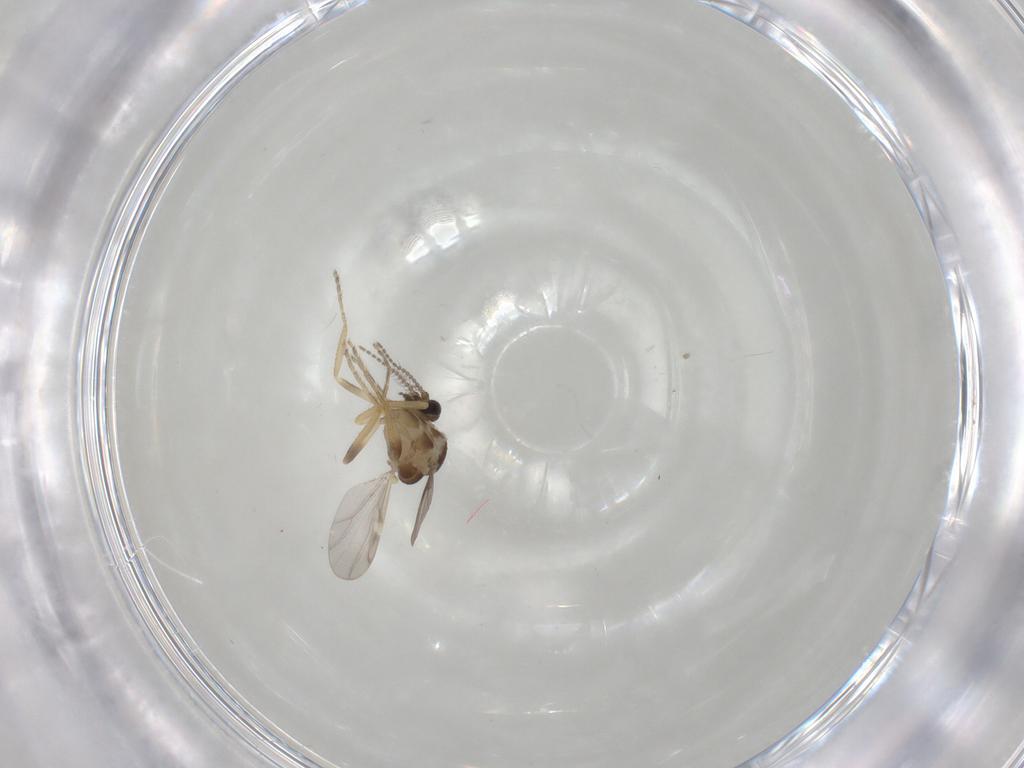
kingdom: Animalia
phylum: Arthropoda
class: Insecta
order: Diptera
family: Ceratopogonidae
